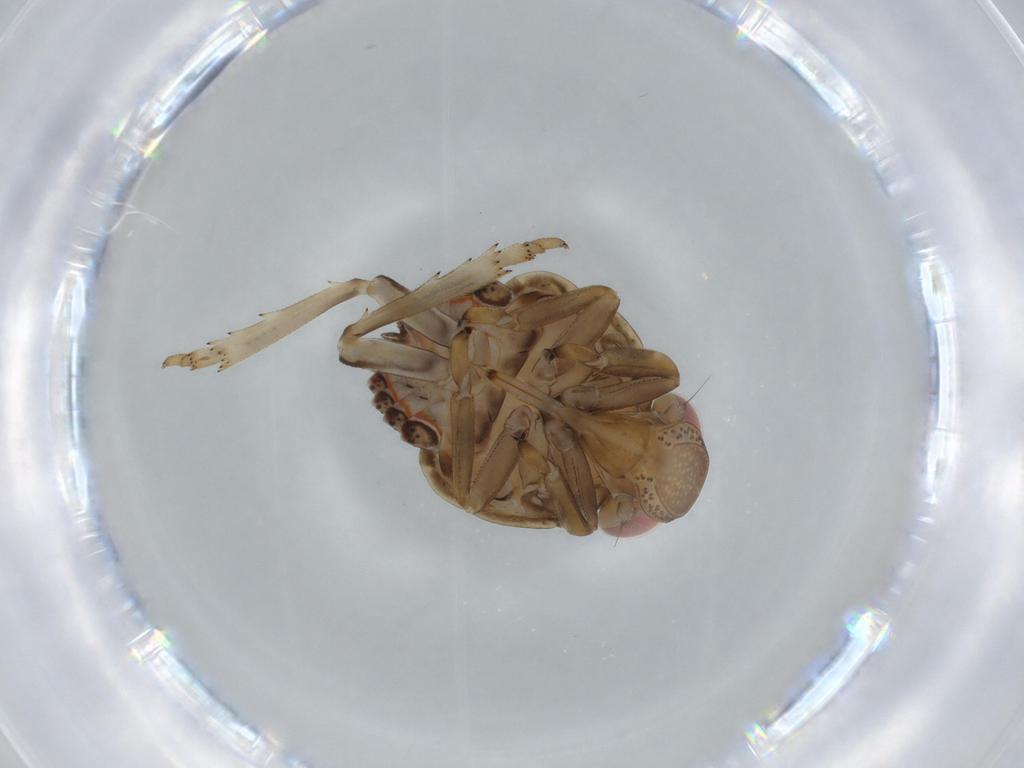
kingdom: Animalia
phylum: Arthropoda
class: Insecta
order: Hemiptera
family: Issidae
